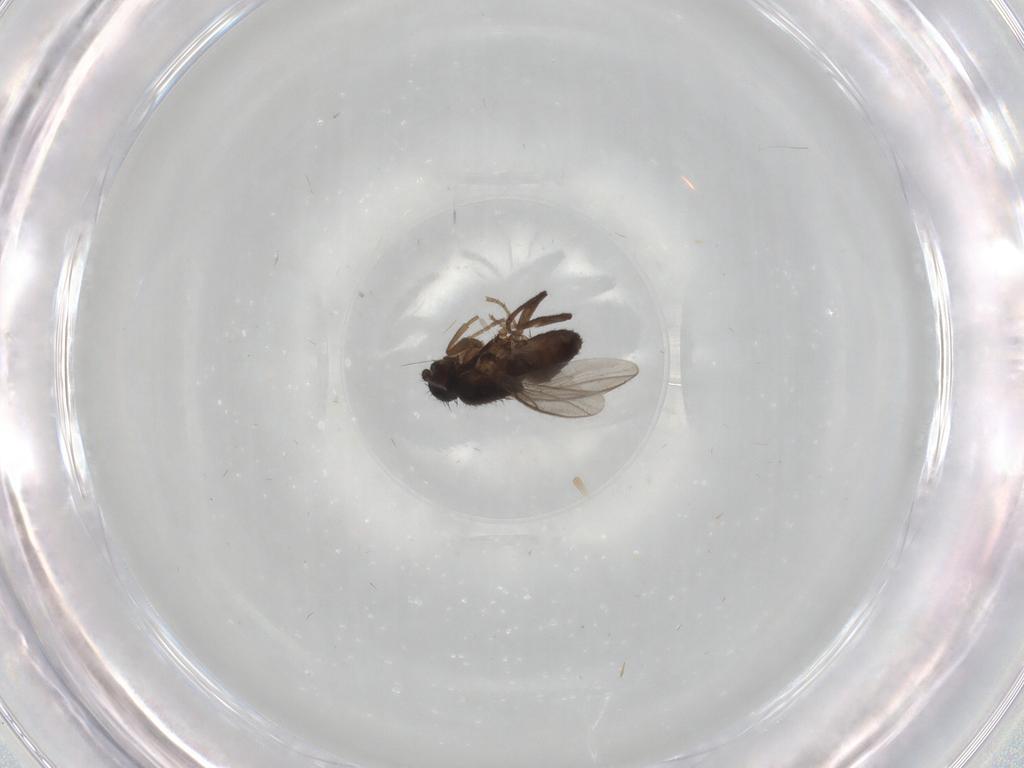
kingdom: Animalia
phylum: Arthropoda
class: Insecta
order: Diptera
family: Sphaeroceridae
